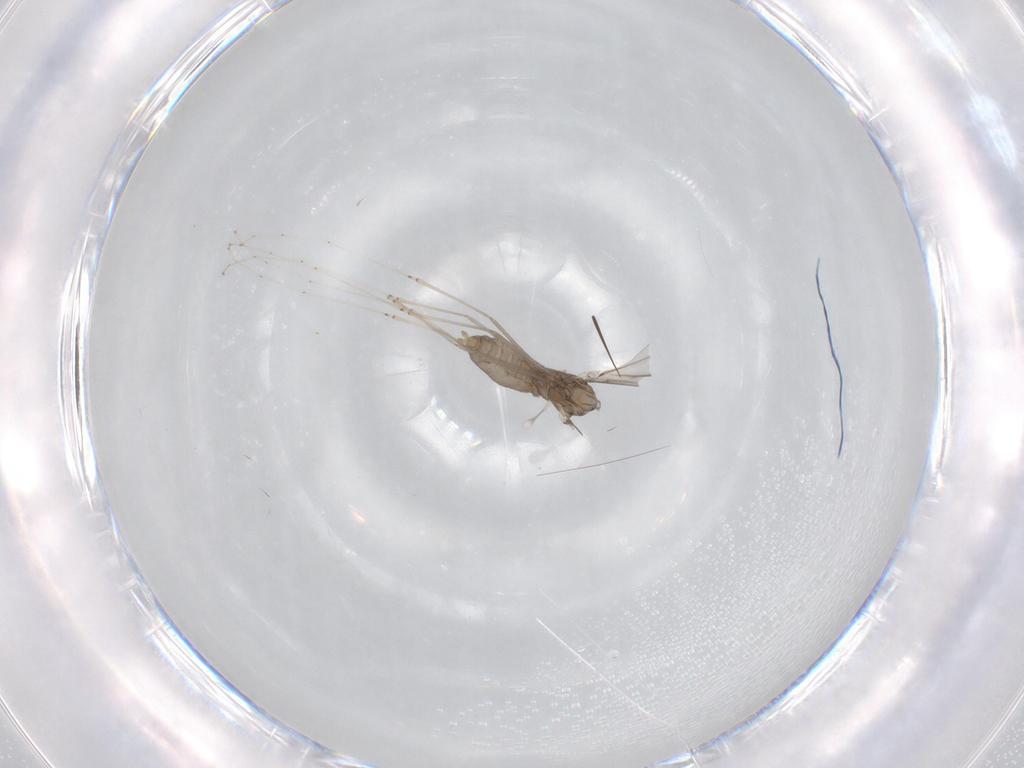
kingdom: Animalia
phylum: Arthropoda
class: Insecta
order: Diptera
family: Cecidomyiidae
